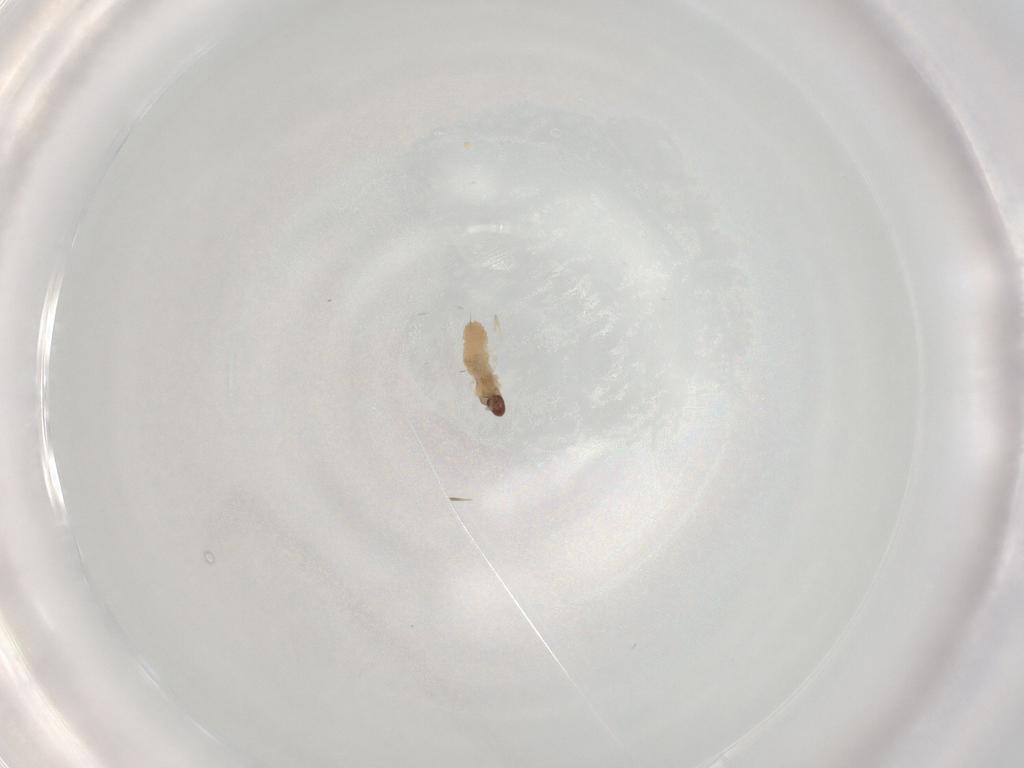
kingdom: Animalia
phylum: Arthropoda
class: Insecta
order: Diptera
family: Cecidomyiidae
